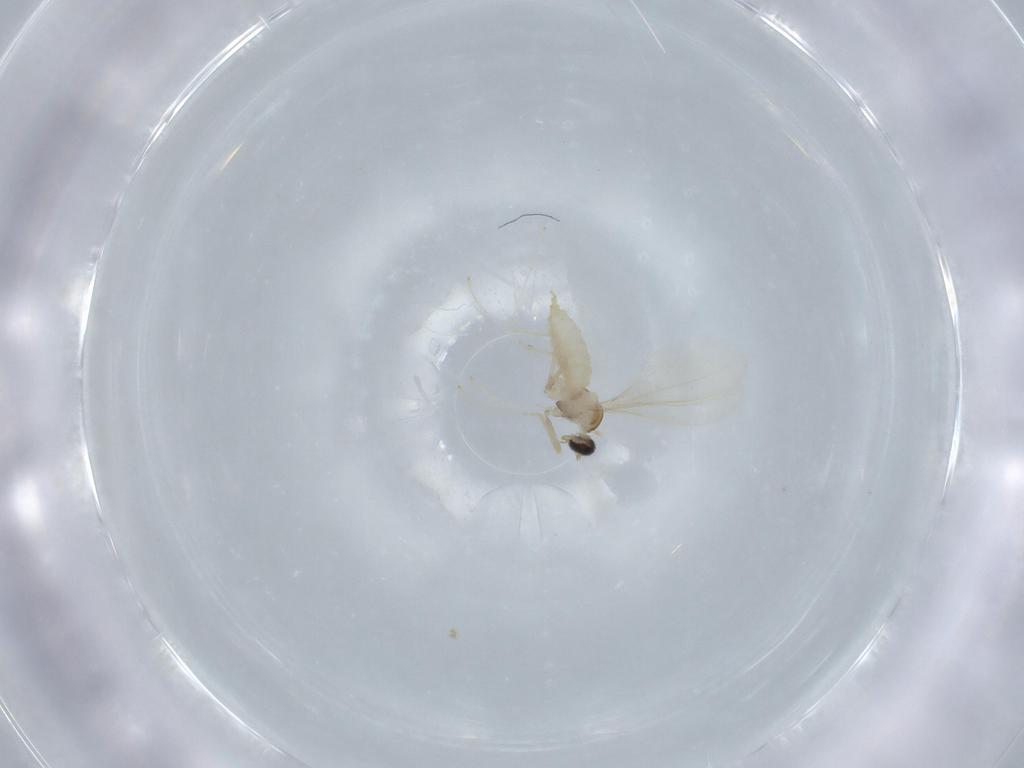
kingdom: Animalia
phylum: Arthropoda
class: Insecta
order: Diptera
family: Cecidomyiidae
